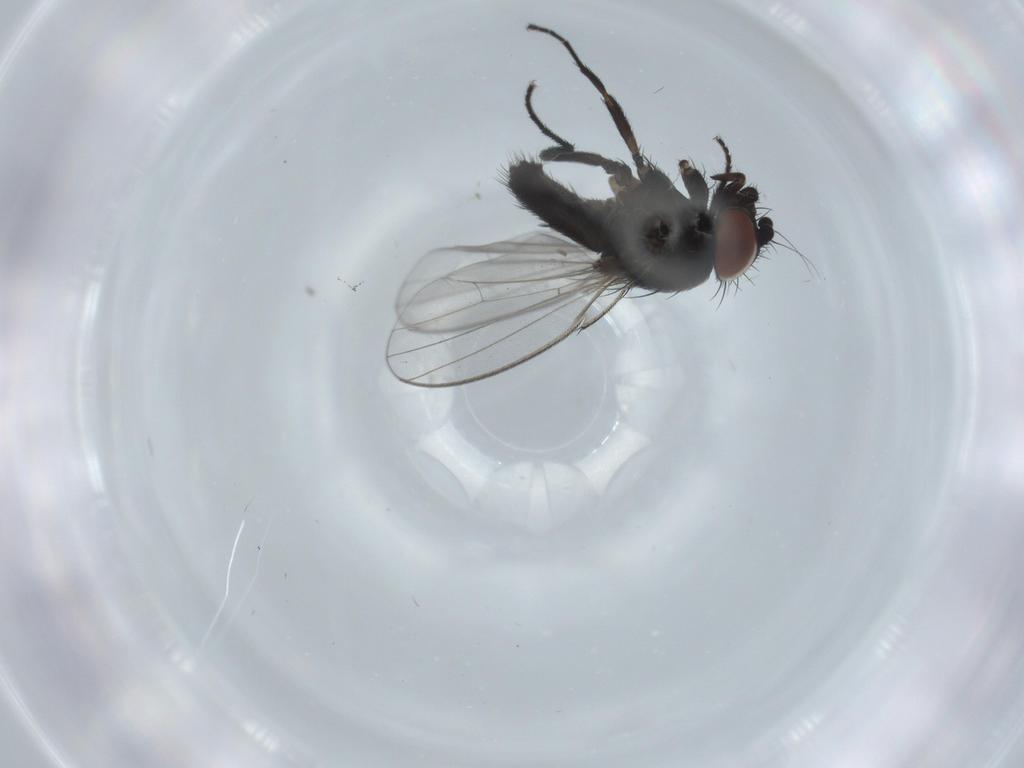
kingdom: Animalia
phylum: Arthropoda
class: Insecta
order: Diptera
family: Milichiidae
